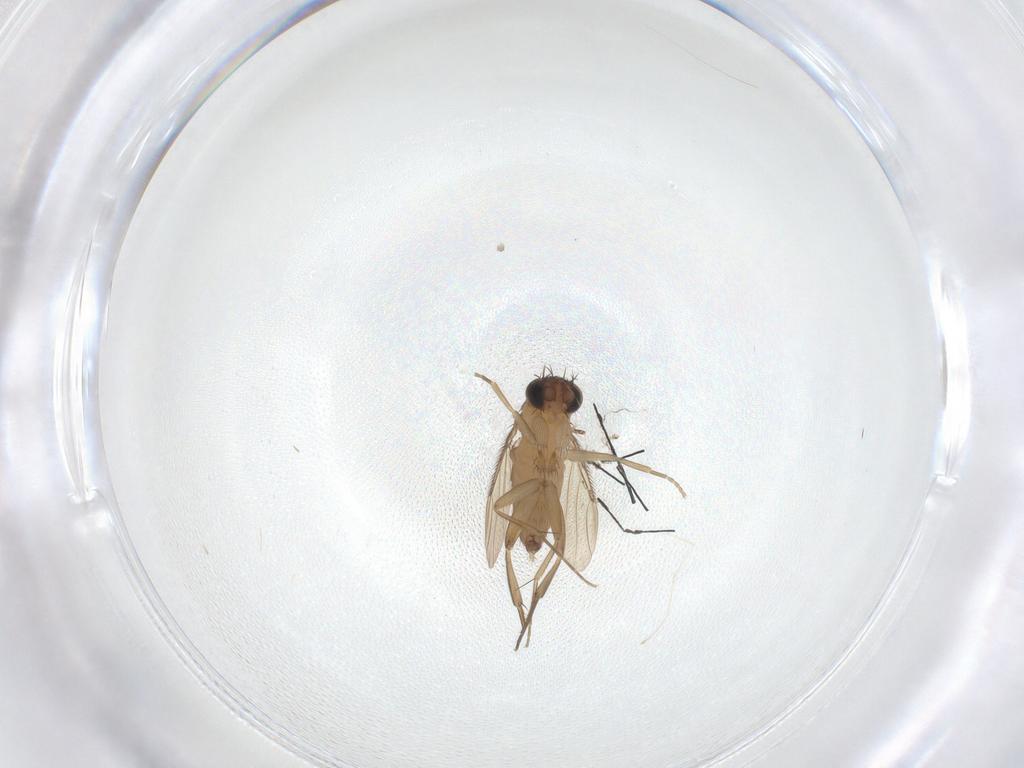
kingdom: Animalia
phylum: Arthropoda
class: Insecta
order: Diptera
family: Phoridae
